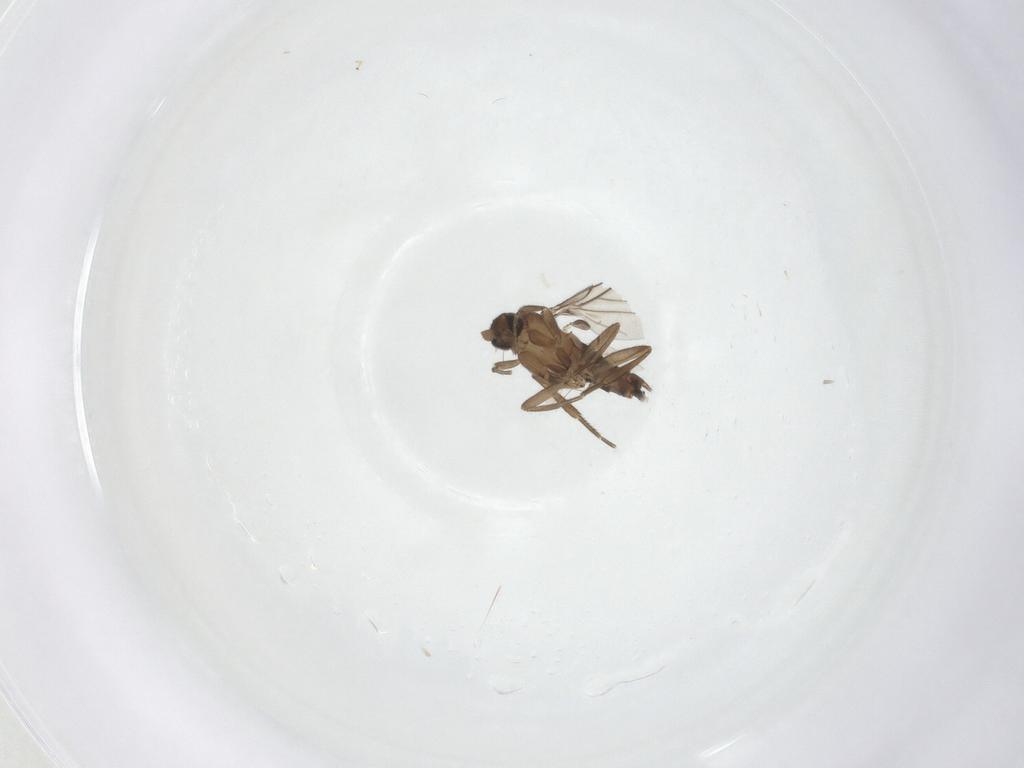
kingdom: Animalia
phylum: Arthropoda
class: Insecta
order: Diptera
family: Phoridae
